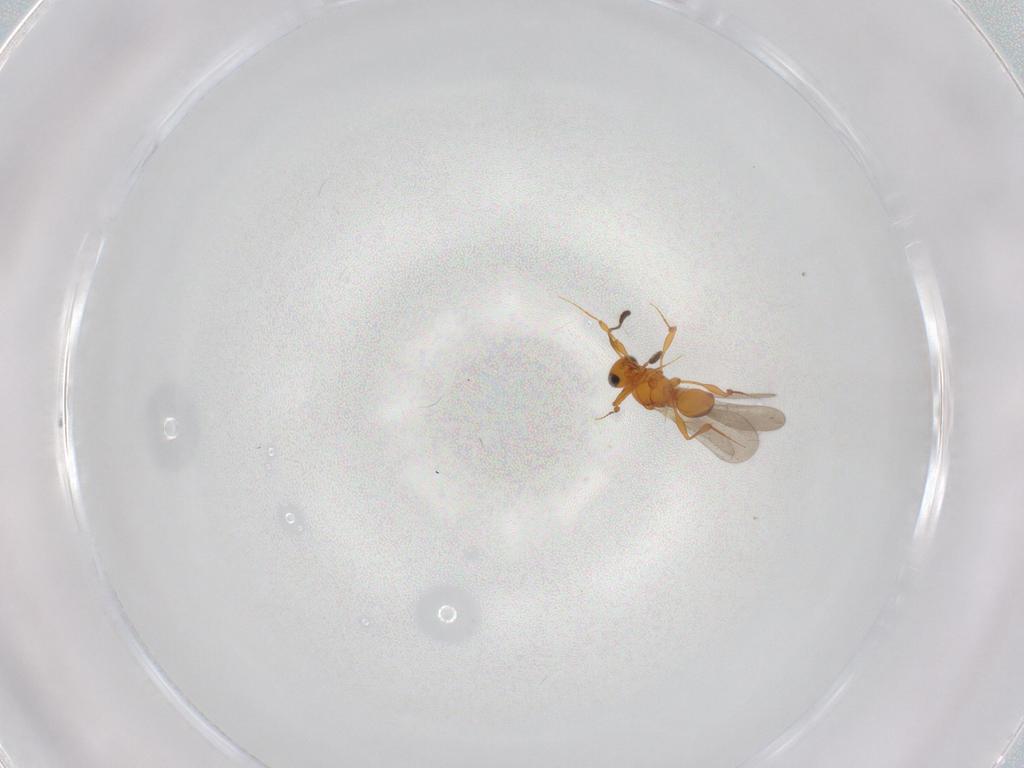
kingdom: Animalia
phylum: Arthropoda
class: Insecta
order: Hymenoptera
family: Platygastridae
